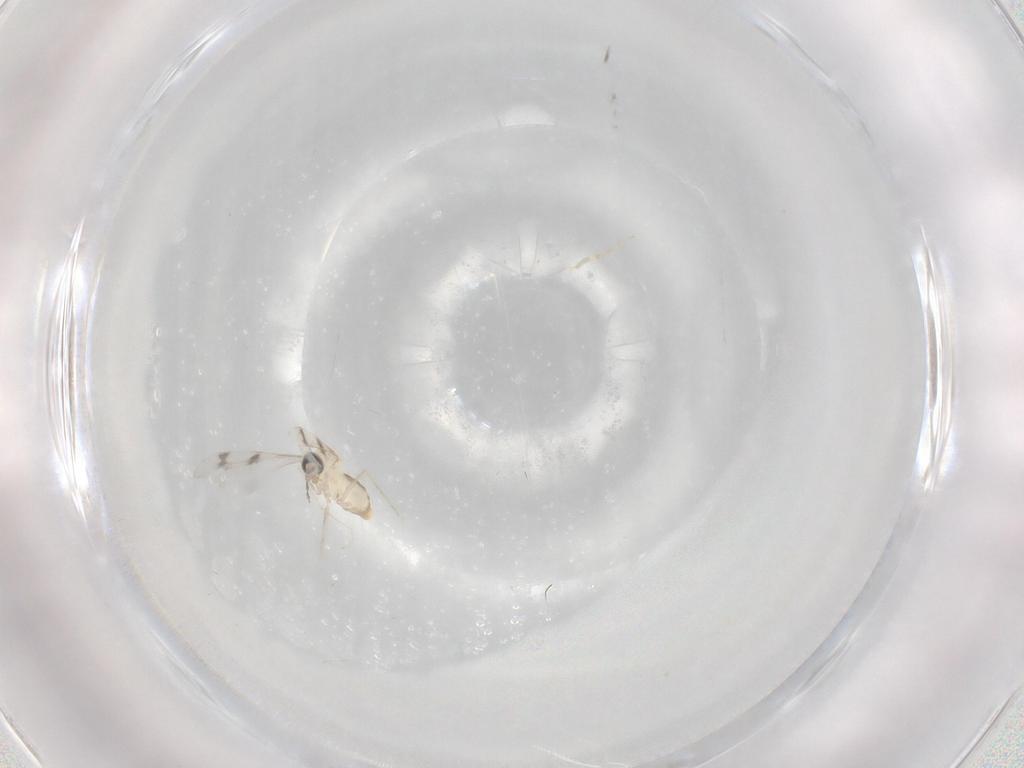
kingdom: Animalia
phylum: Arthropoda
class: Insecta
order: Diptera
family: Cecidomyiidae
